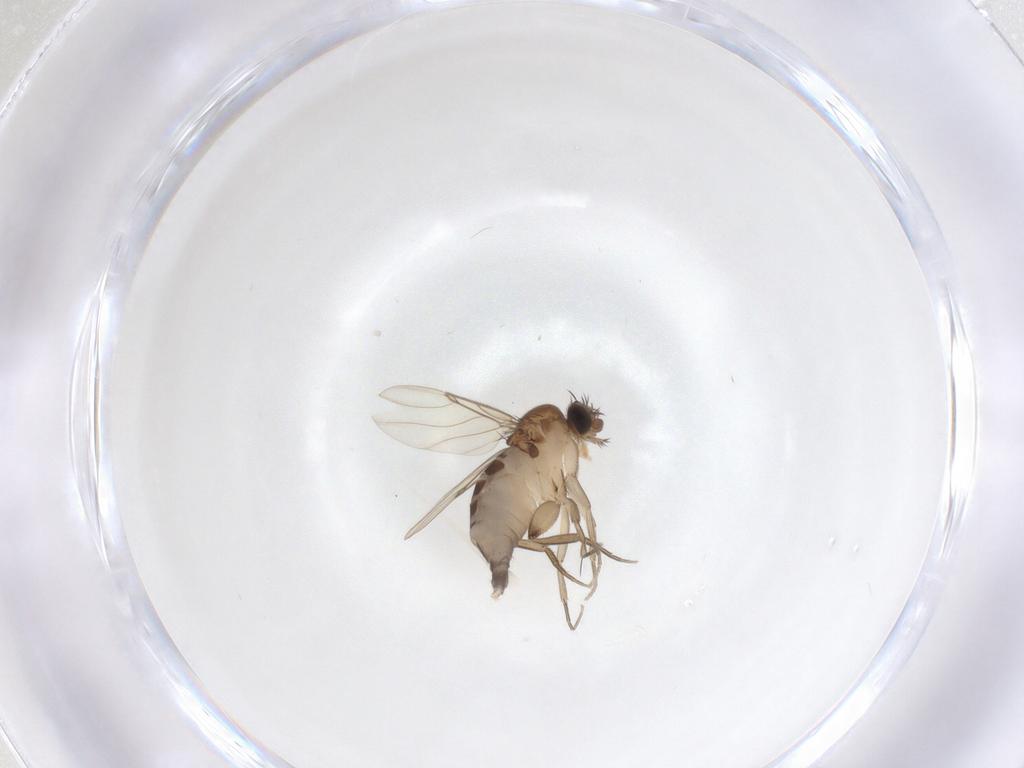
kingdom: Animalia
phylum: Arthropoda
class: Insecta
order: Diptera
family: Phoridae
